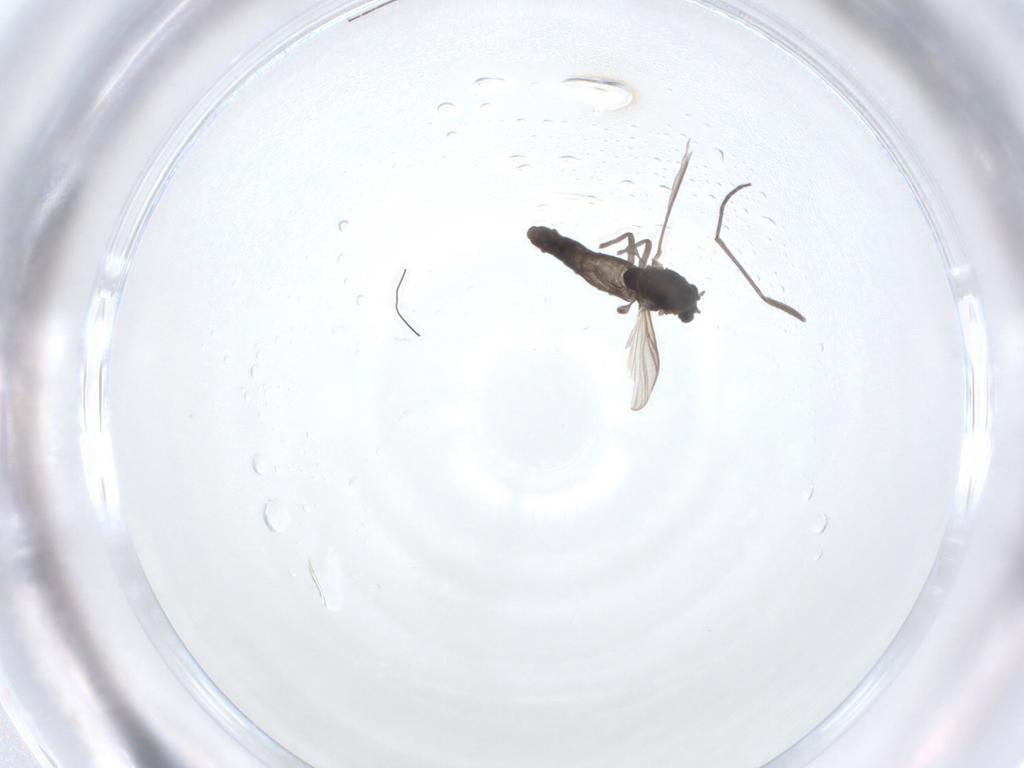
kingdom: Animalia
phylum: Arthropoda
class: Insecta
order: Diptera
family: Chironomidae
